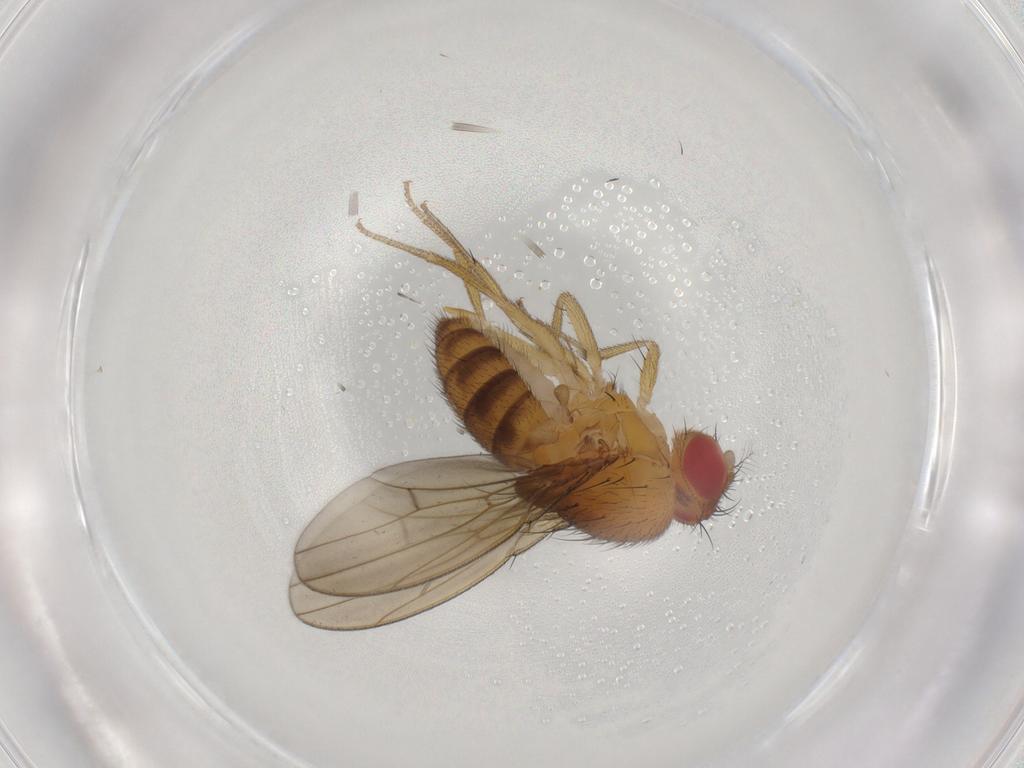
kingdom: Animalia
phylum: Arthropoda
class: Insecta
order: Diptera
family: Drosophilidae
